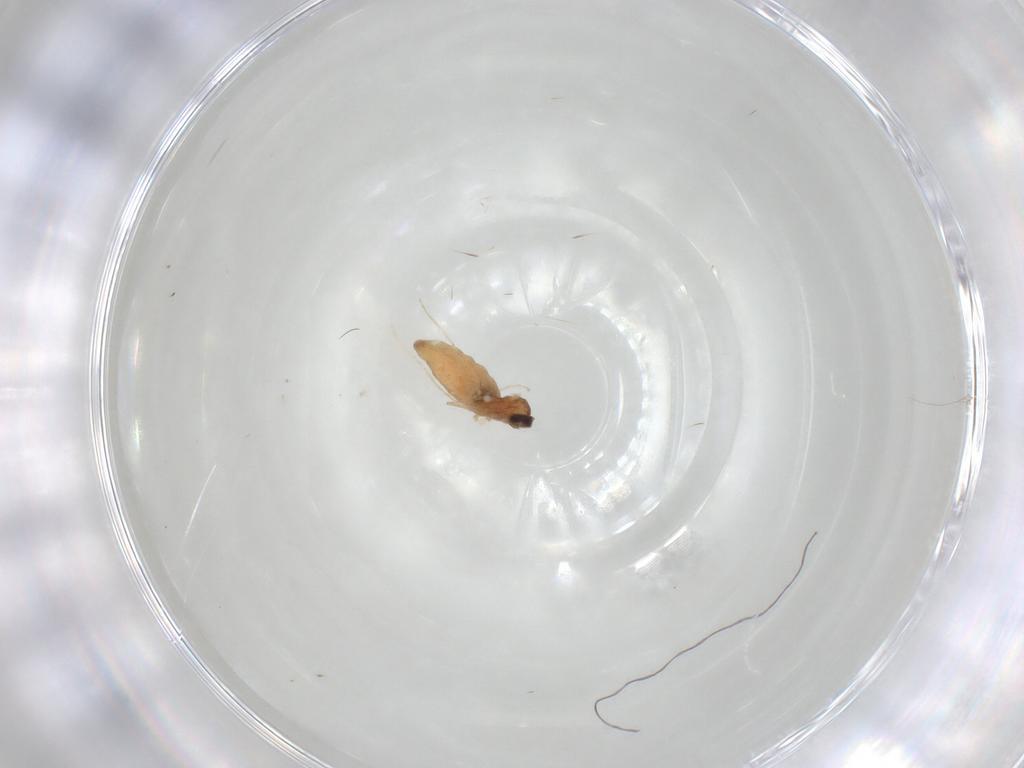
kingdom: Animalia
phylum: Arthropoda
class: Insecta
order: Diptera
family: Cecidomyiidae
